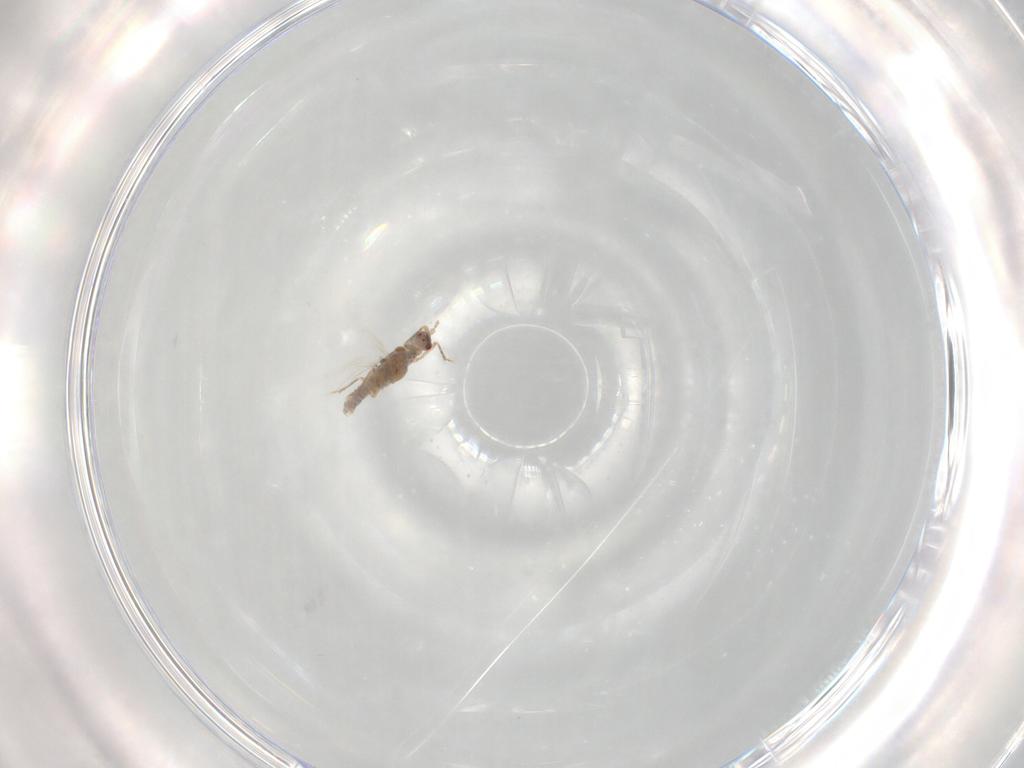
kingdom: Animalia
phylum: Arthropoda
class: Insecta
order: Hemiptera
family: Pseudococcidae
